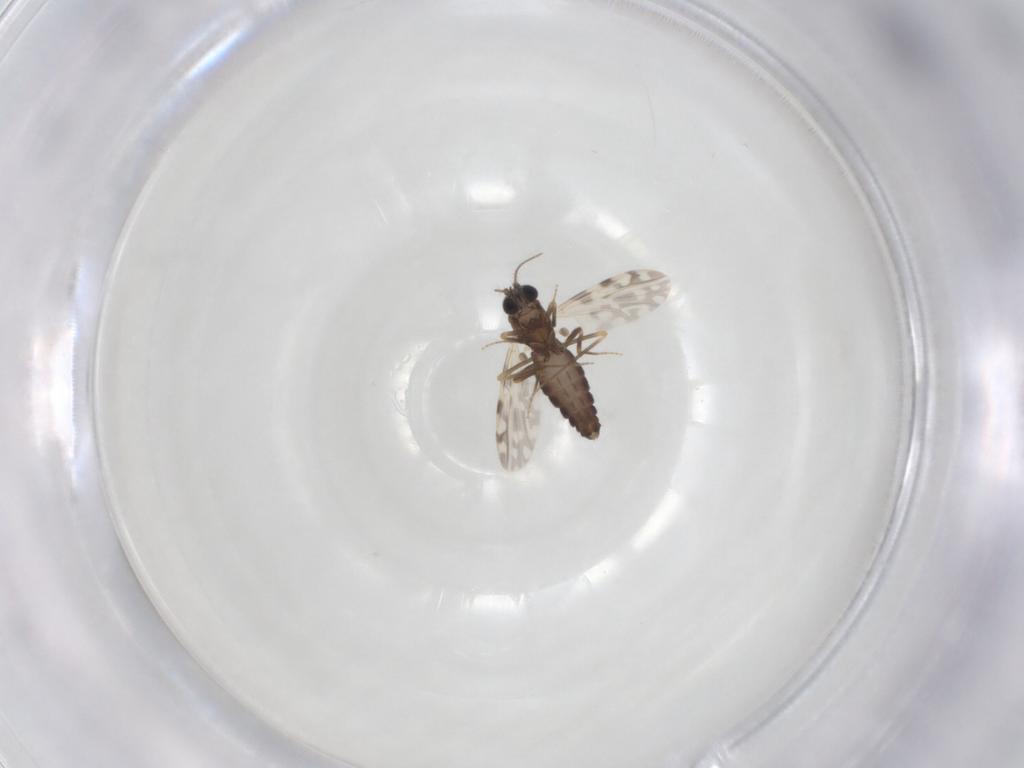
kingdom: Animalia
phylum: Arthropoda
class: Insecta
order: Diptera
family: Ceratopogonidae
